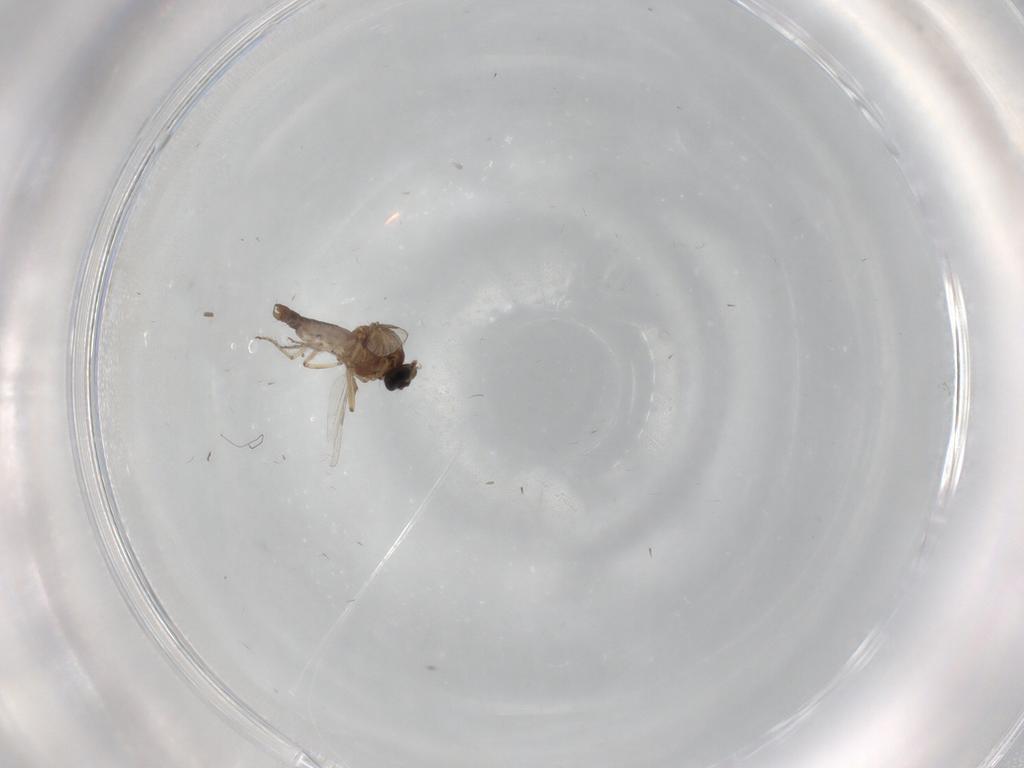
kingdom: Animalia
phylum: Arthropoda
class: Insecta
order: Diptera
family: Ceratopogonidae
